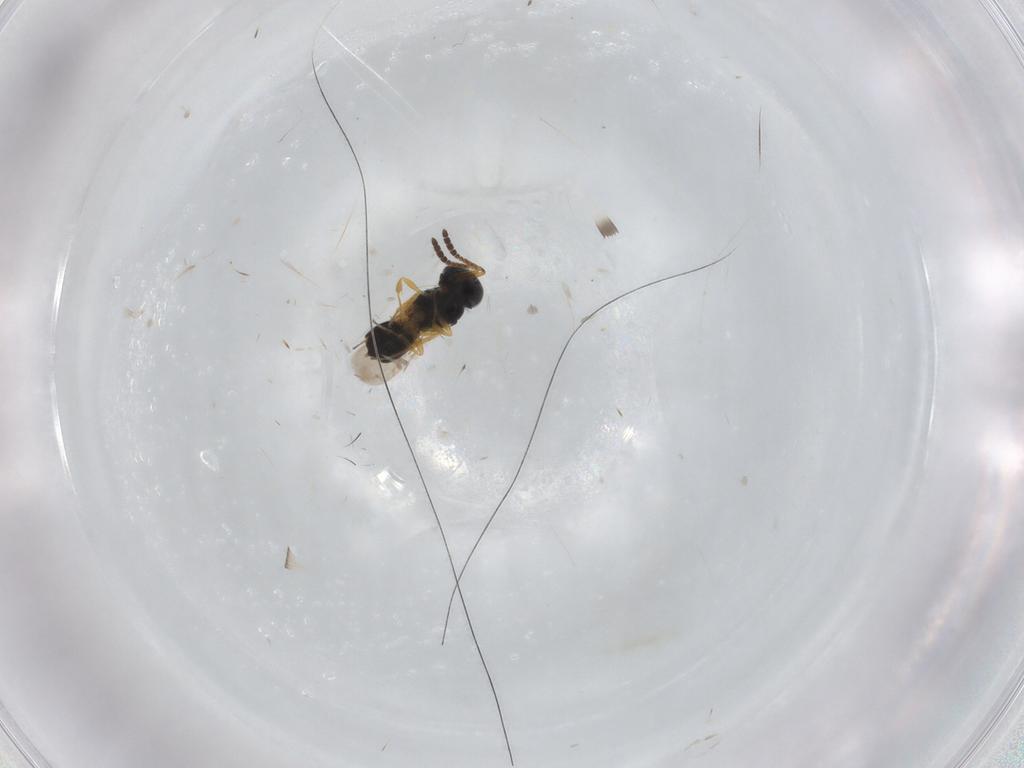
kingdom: Animalia
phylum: Arthropoda
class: Insecta
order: Hymenoptera
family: Scelionidae
